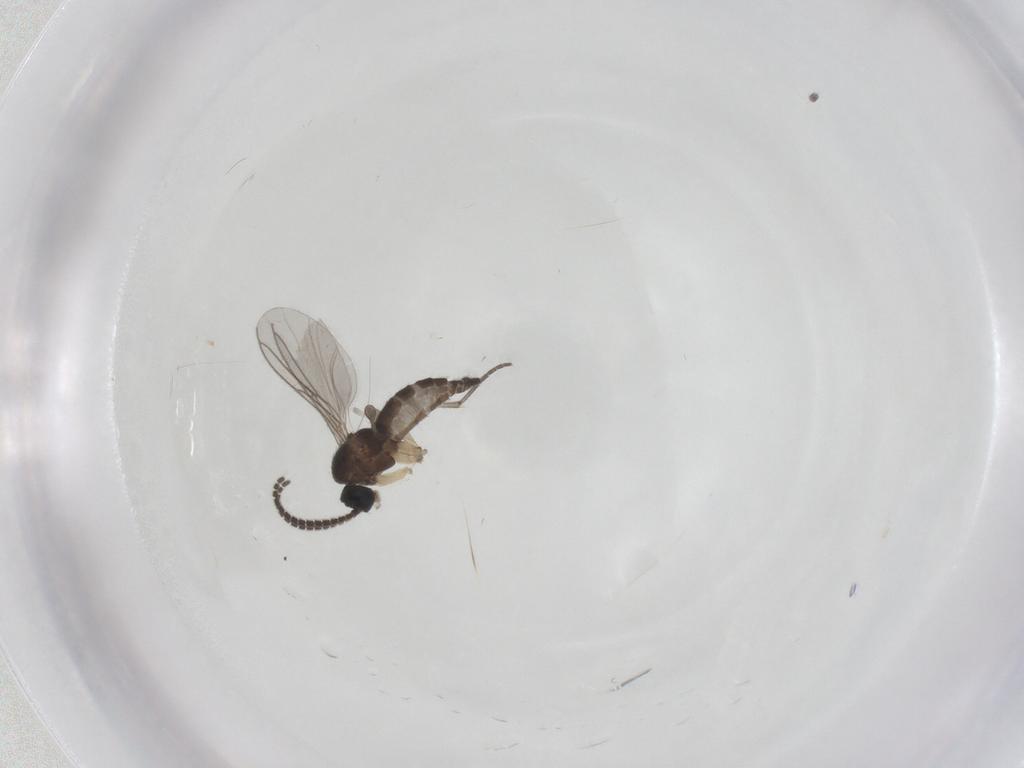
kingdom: Animalia
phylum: Arthropoda
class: Insecta
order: Diptera
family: Sciaridae
